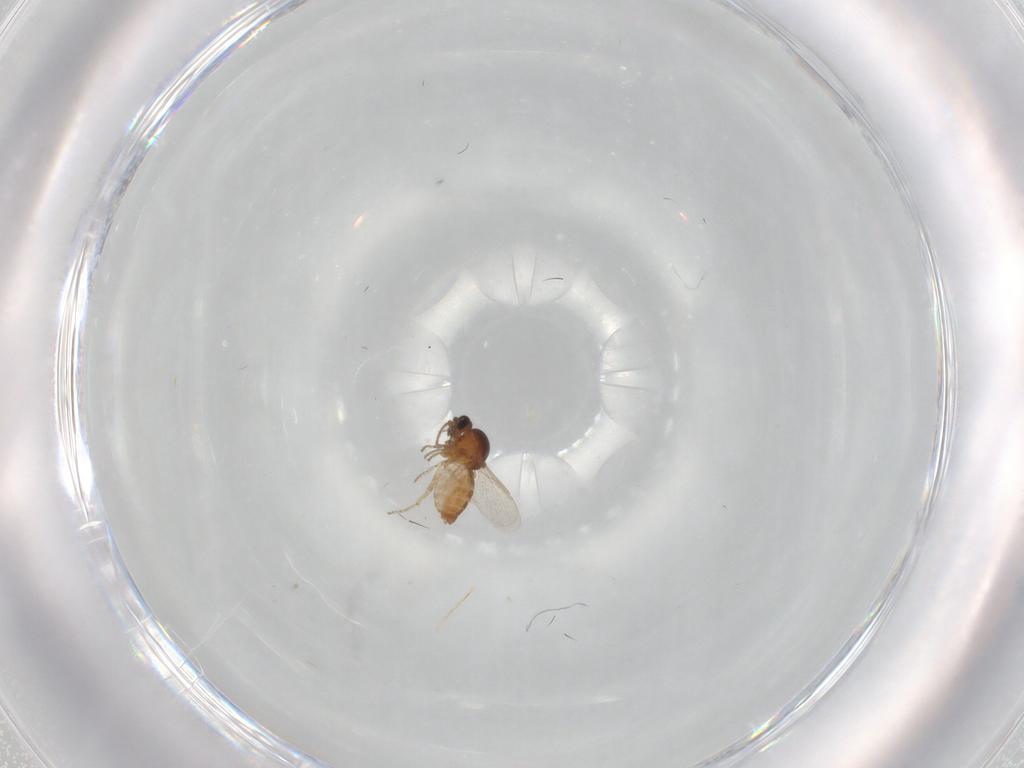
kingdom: Animalia
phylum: Arthropoda
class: Insecta
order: Diptera
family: Ceratopogonidae
